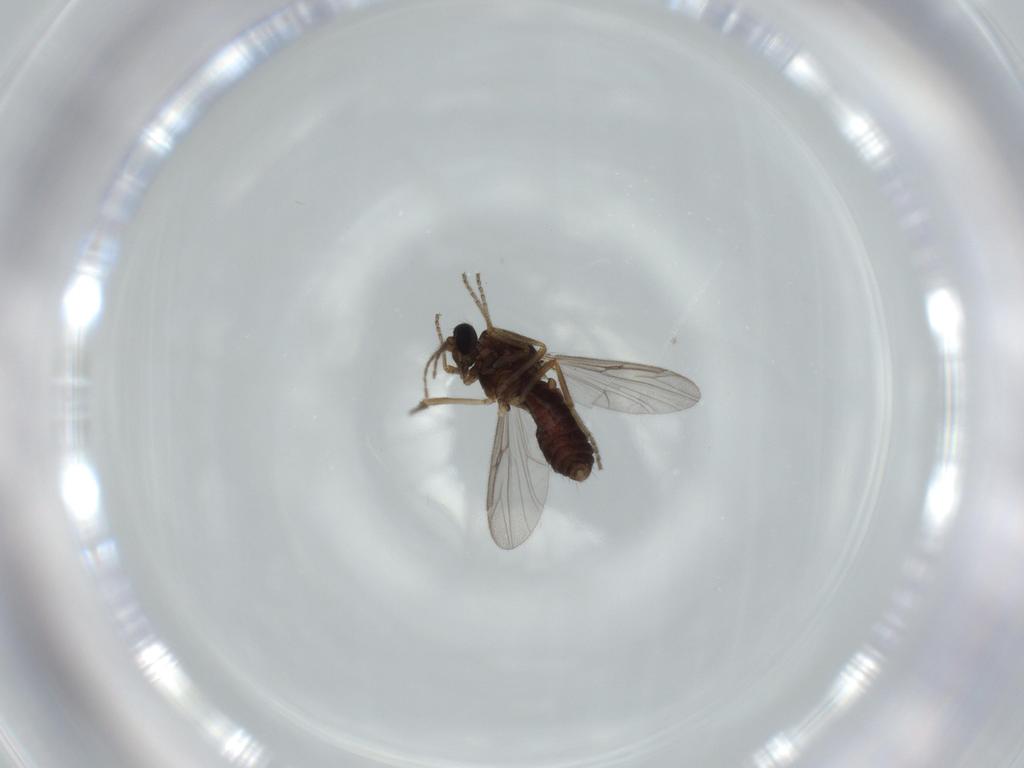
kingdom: Animalia
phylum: Arthropoda
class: Insecta
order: Diptera
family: Ceratopogonidae
